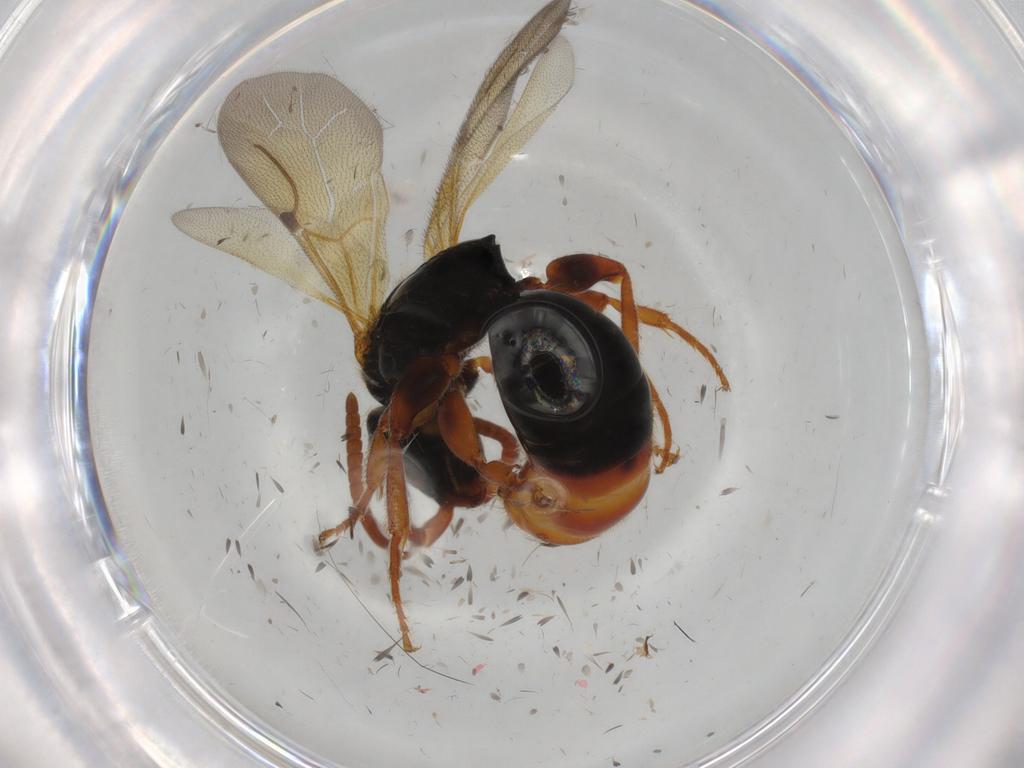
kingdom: Animalia
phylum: Arthropoda
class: Insecta
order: Hymenoptera
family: Bethylidae
